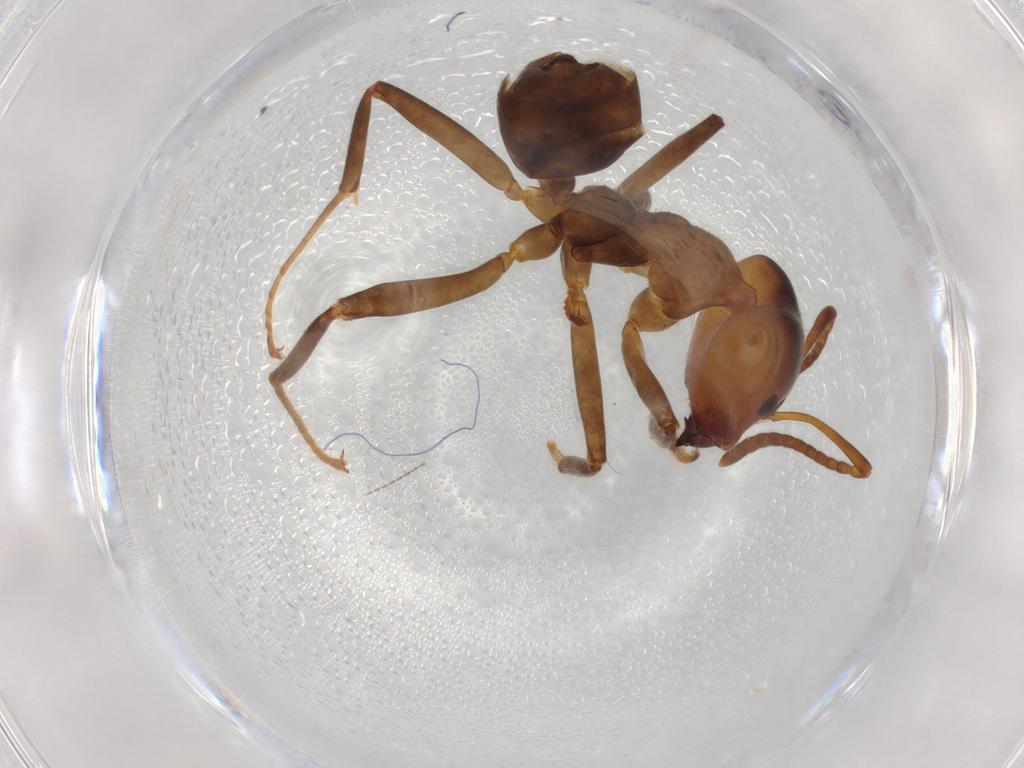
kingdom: Animalia
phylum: Arthropoda
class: Insecta
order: Hymenoptera
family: Formicidae
